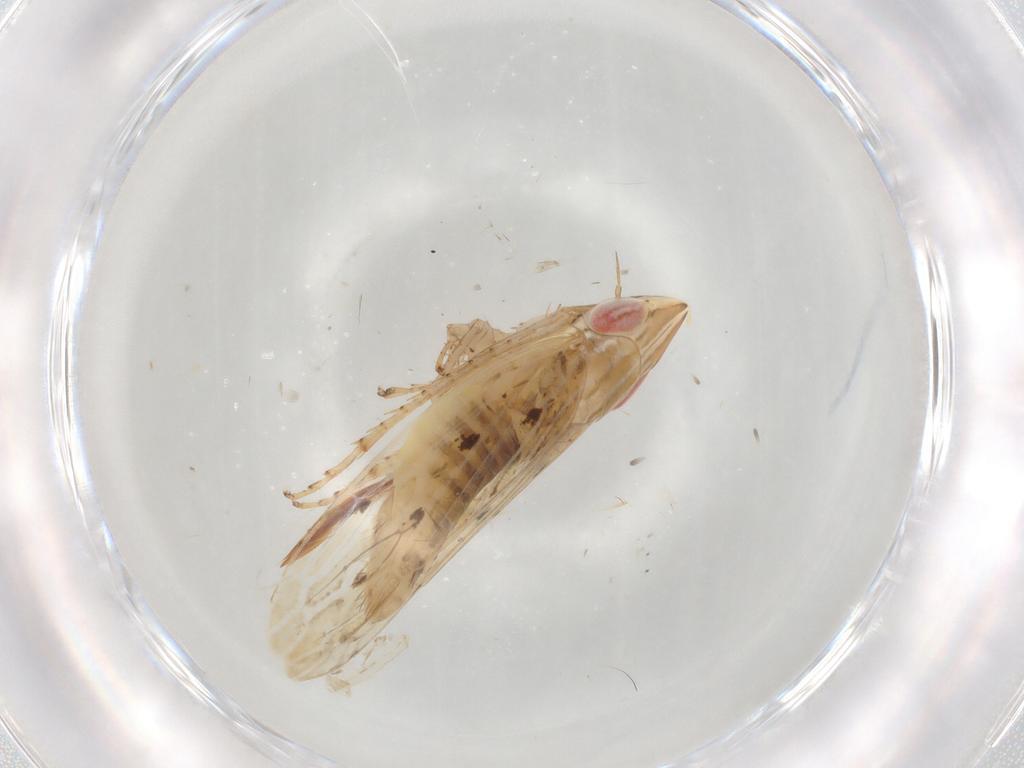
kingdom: Animalia
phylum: Arthropoda
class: Insecta
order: Hemiptera
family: Cicadellidae
